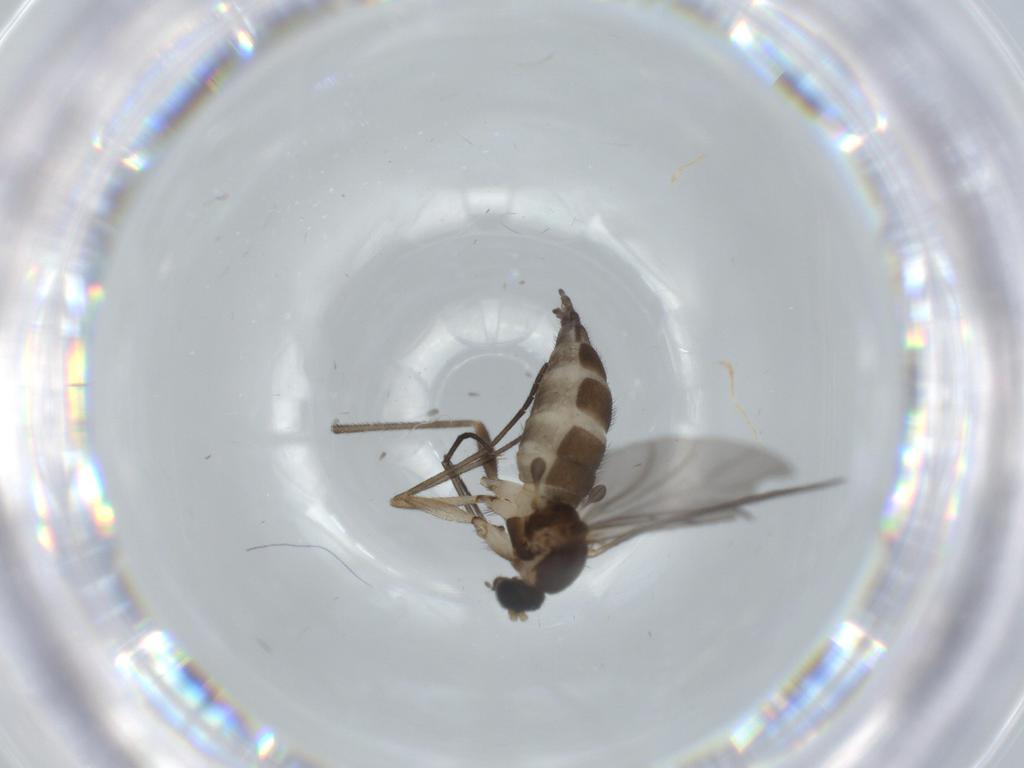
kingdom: Animalia
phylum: Arthropoda
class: Insecta
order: Diptera
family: Sciaridae
